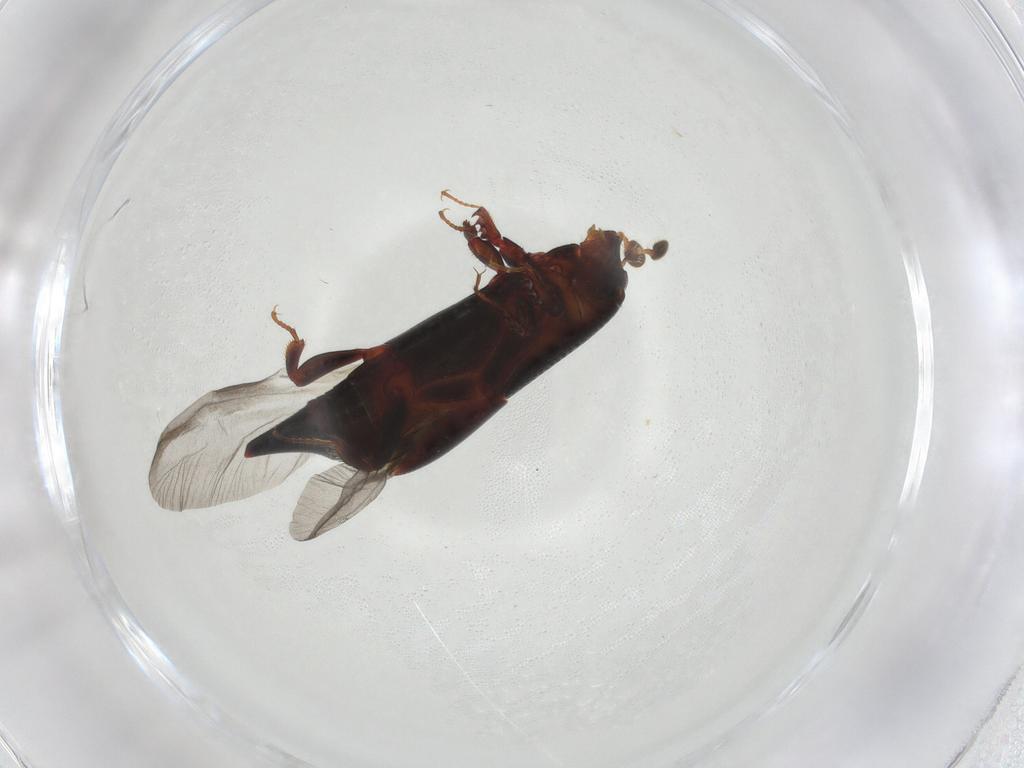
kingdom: Animalia
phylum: Arthropoda
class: Insecta
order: Coleoptera
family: Histeridae
